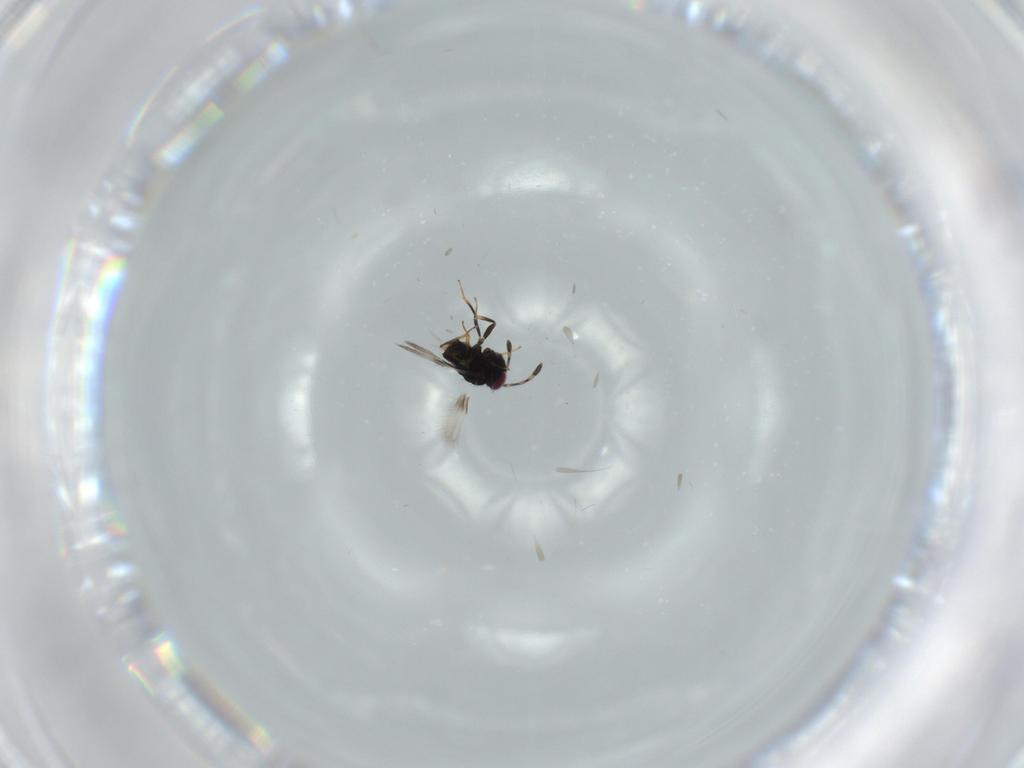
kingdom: Animalia
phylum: Arthropoda
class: Insecta
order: Hymenoptera
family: Azotidae
